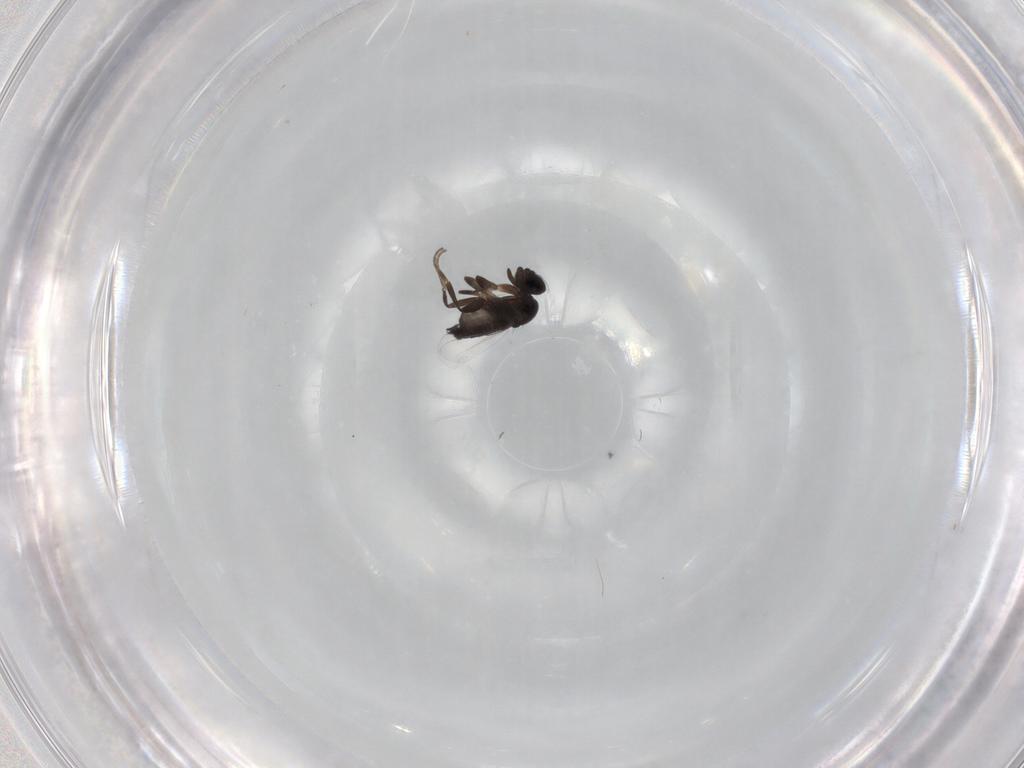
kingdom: Animalia
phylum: Arthropoda
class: Insecta
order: Diptera
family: Phoridae
